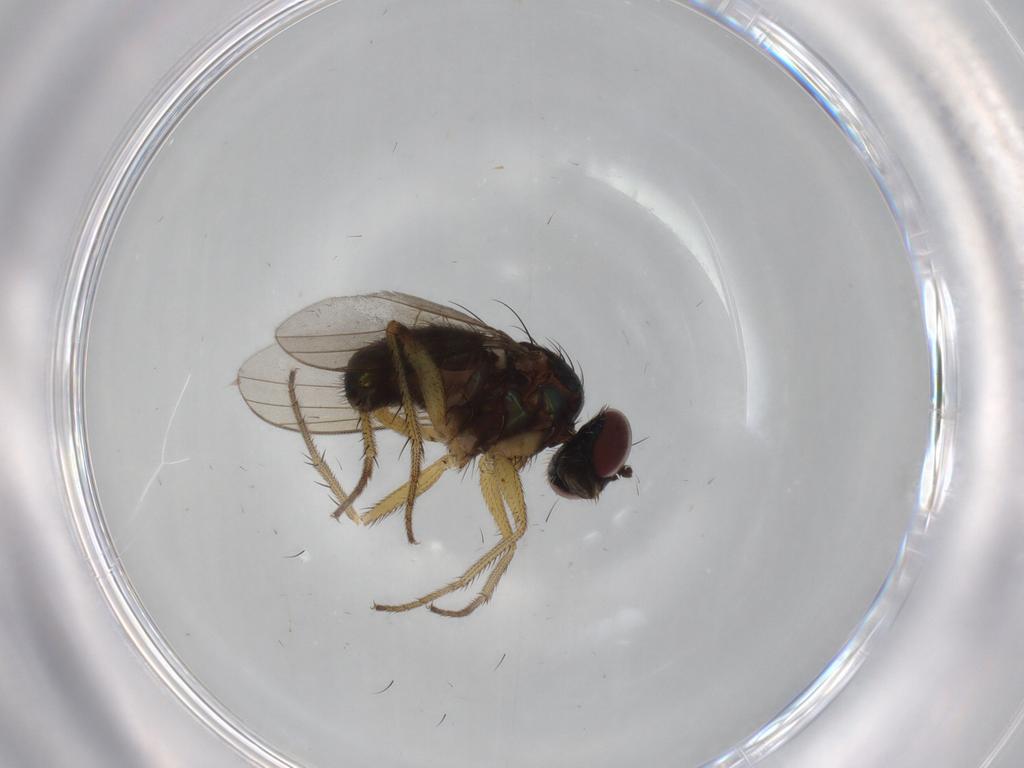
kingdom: Animalia
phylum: Arthropoda
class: Insecta
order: Diptera
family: Dolichopodidae
